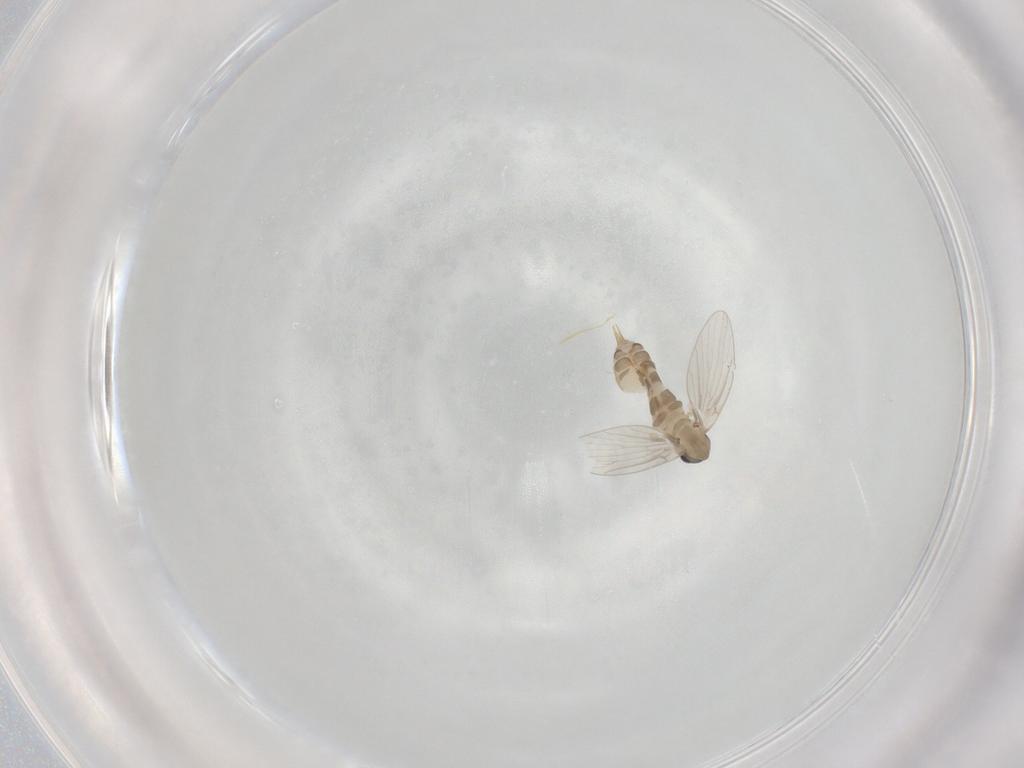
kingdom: Animalia
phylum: Arthropoda
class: Insecta
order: Diptera
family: Psychodidae
